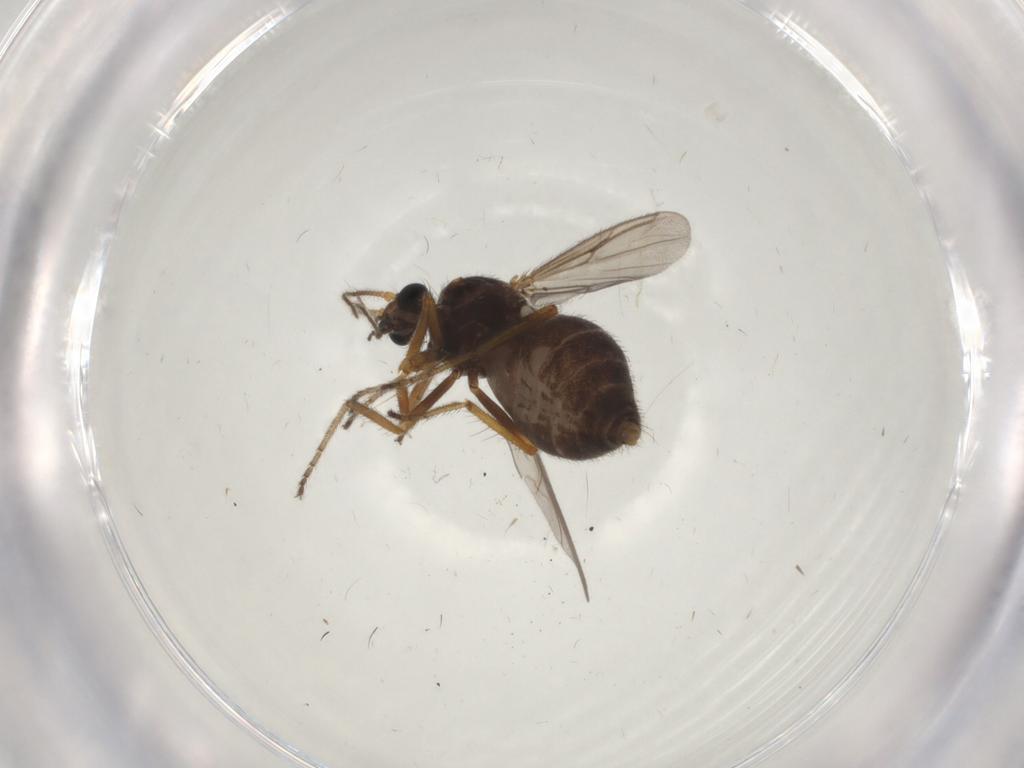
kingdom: Animalia
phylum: Arthropoda
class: Insecta
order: Diptera
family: Ceratopogonidae
